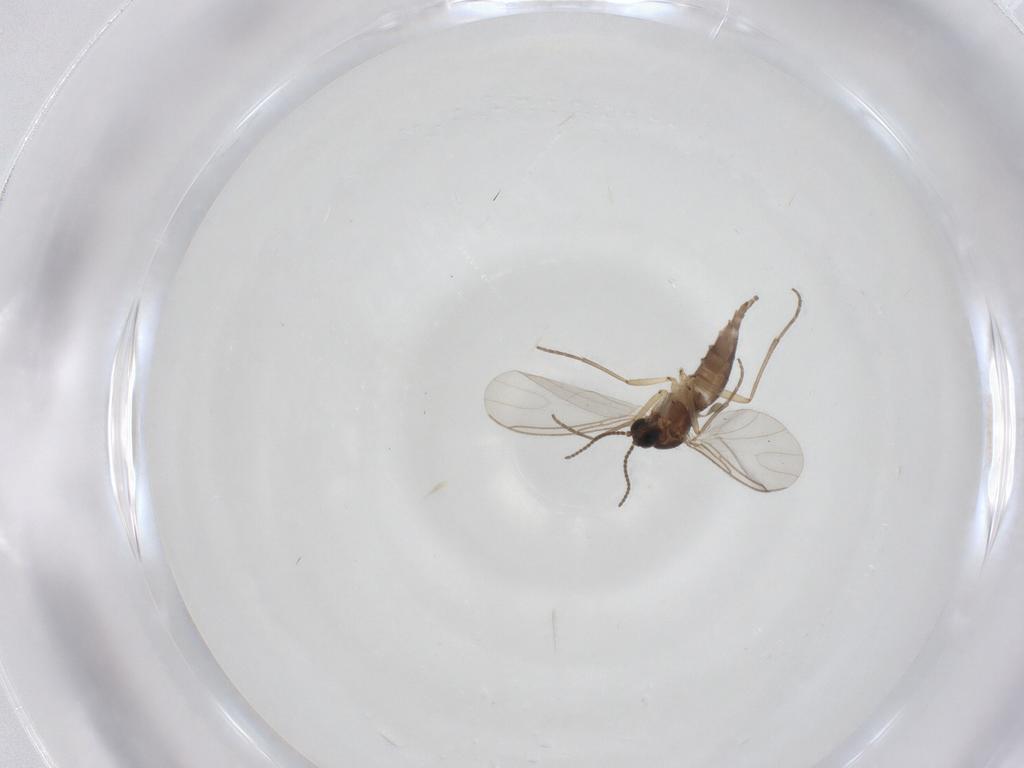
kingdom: Animalia
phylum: Arthropoda
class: Insecta
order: Diptera
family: Sciaridae
